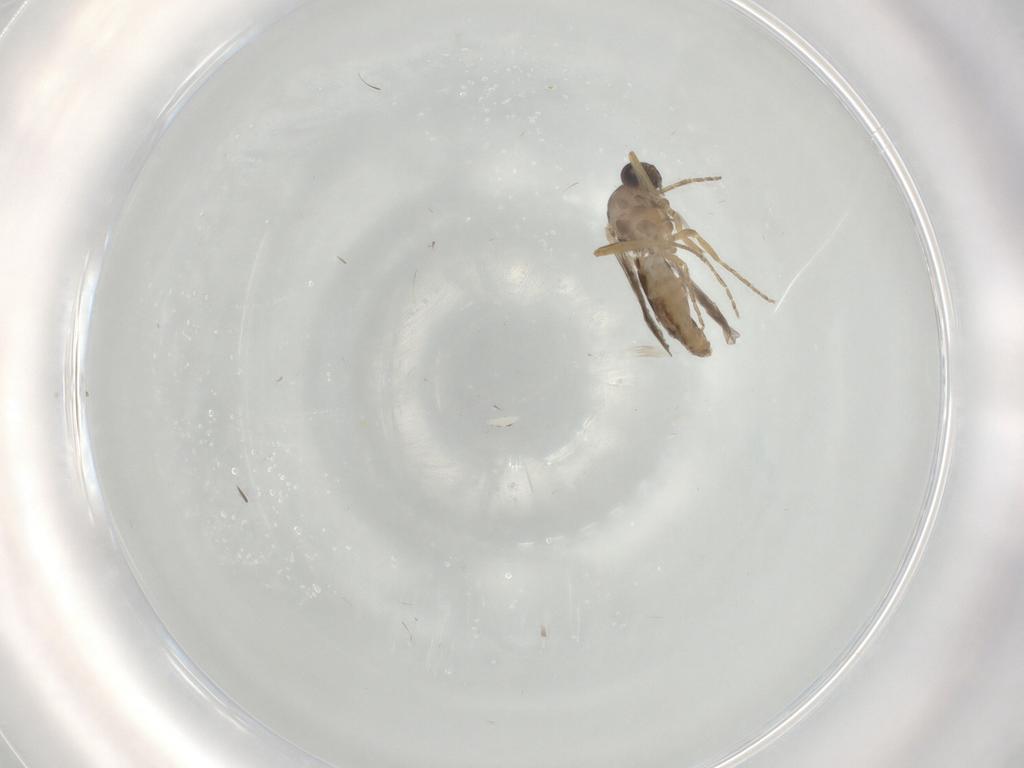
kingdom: Animalia
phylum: Arthropoda
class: Insecta
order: Diptera
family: Ceratopogonidae
